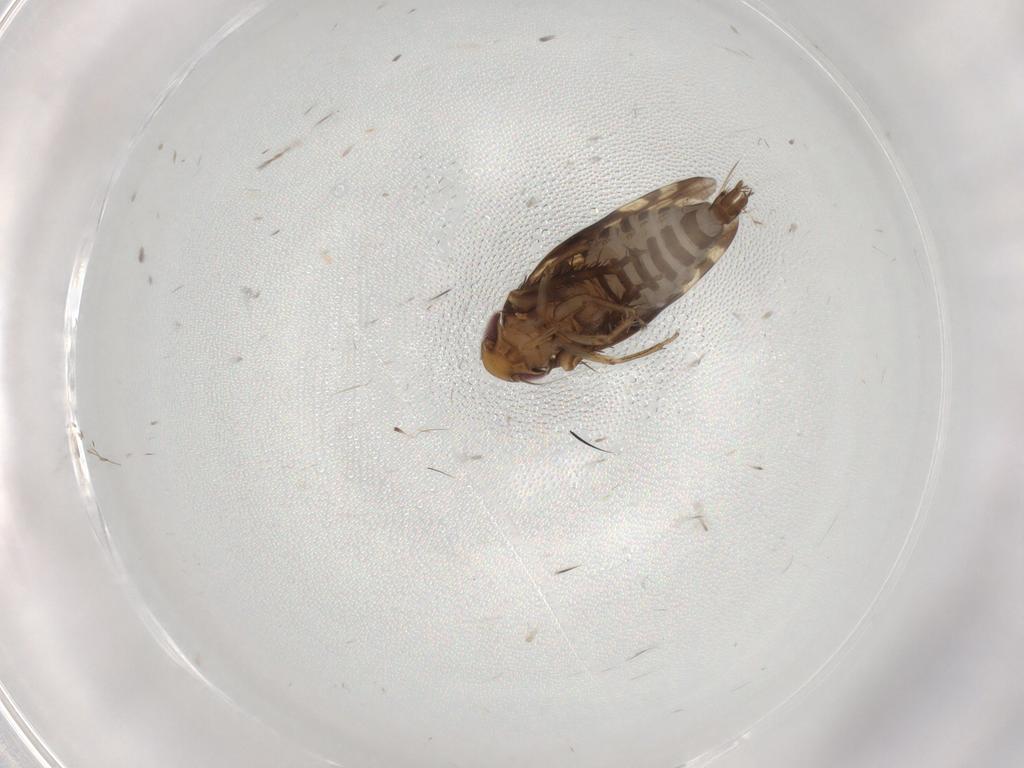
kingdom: Animalia
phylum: Arthropoda
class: Insecta
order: Hemiptera
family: Cicadellidae
